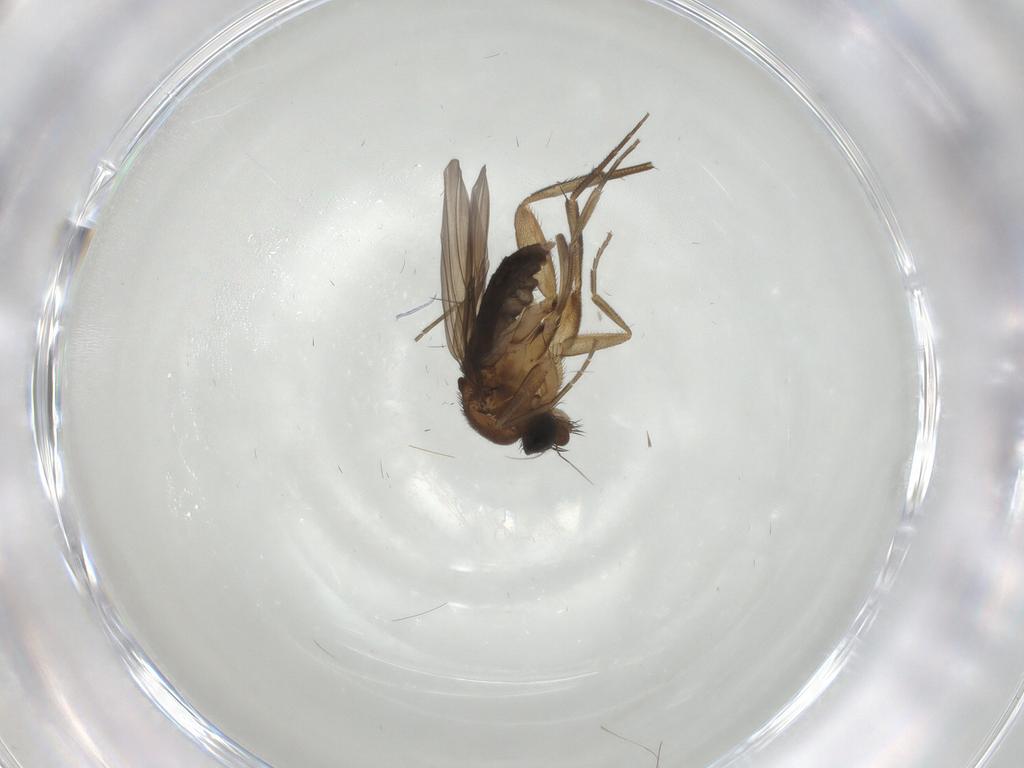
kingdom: Animalia
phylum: Arthropoda
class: Insecta
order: Diptera
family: Phoridae
